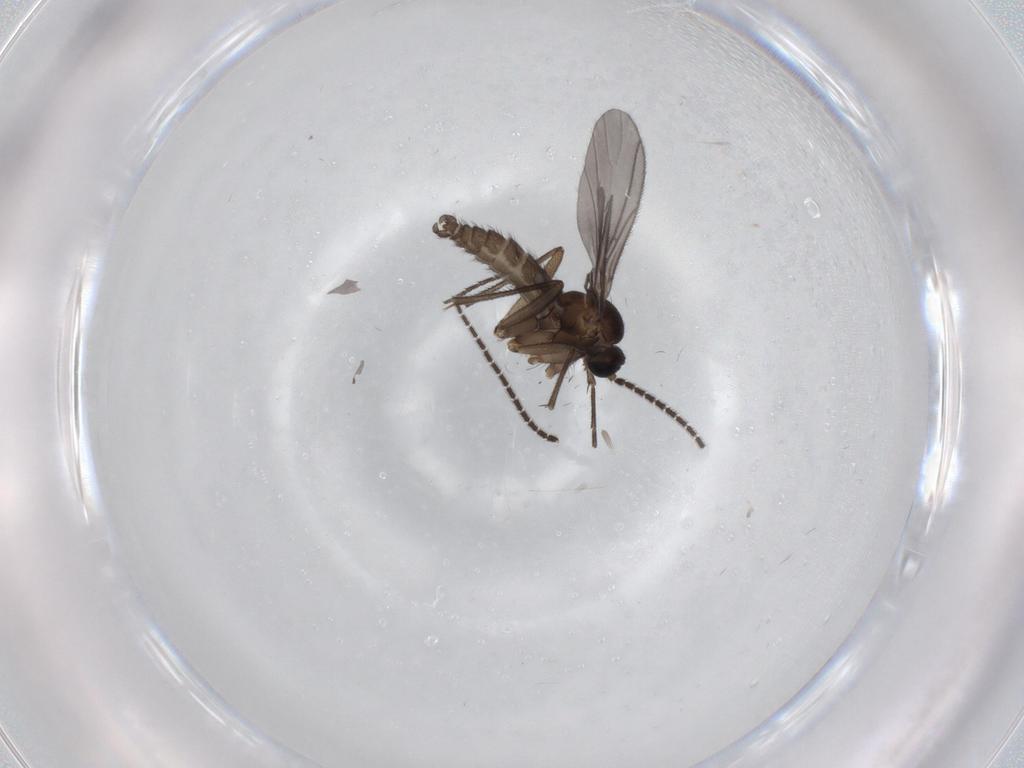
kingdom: Animalia
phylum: Arthropoda
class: Insecta
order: Diptera
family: Sciaridae
